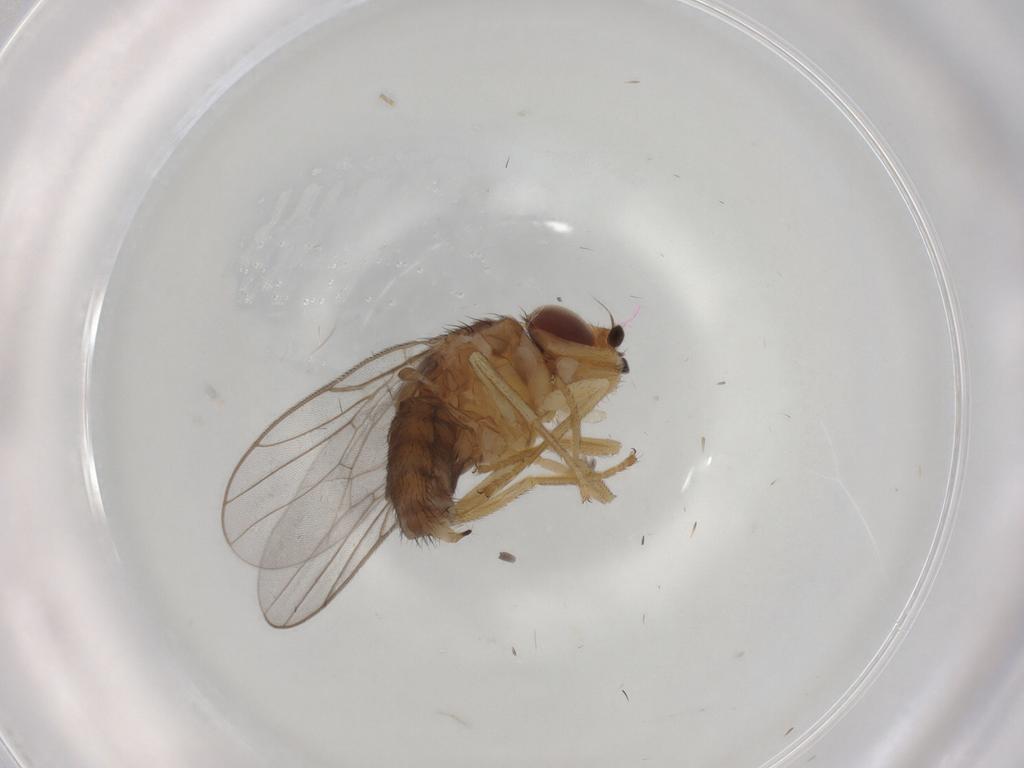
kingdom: Animalia
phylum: Arthropoda
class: Insecta
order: Diptera
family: Chloropidae
